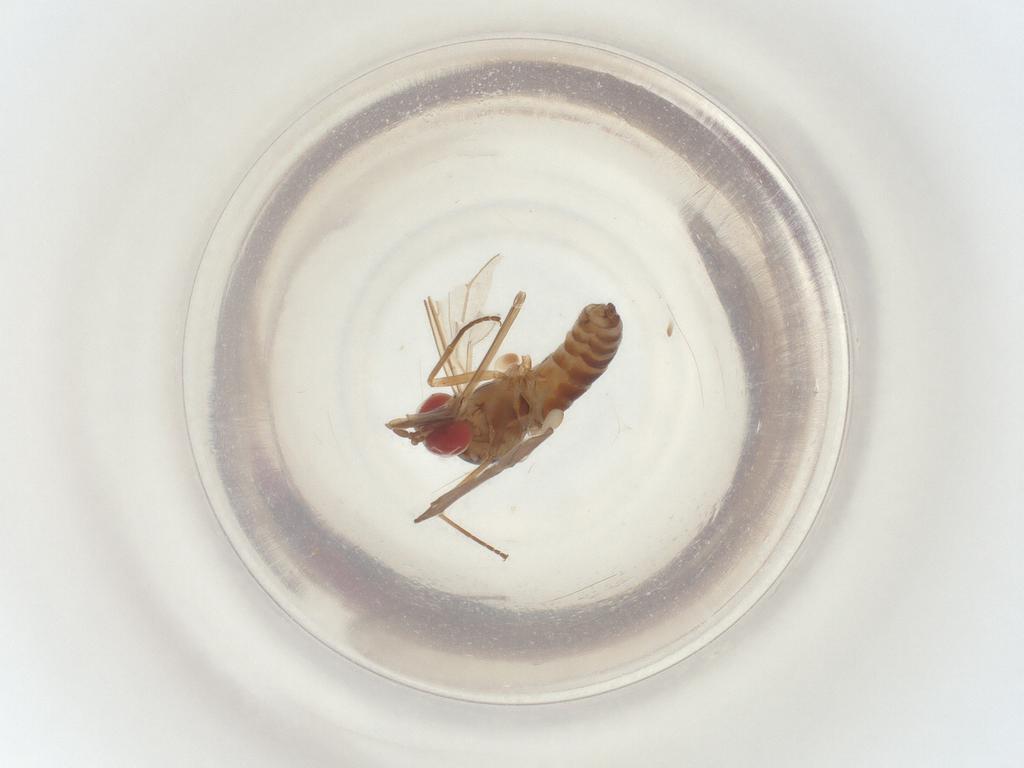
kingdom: Animalia
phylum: Arthropoda
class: Insecta
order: Diptera
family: Mythicomyiidae
